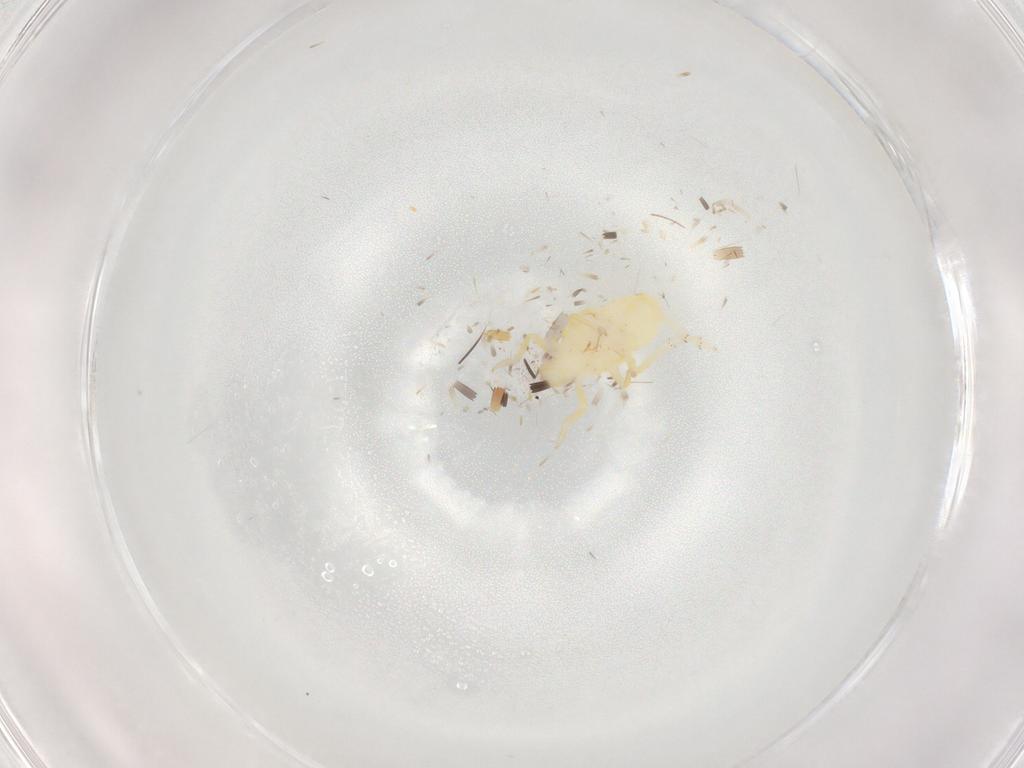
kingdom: Animalia
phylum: Arthropoda
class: Insecta
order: Hemiptera
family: Tropiduchidae
